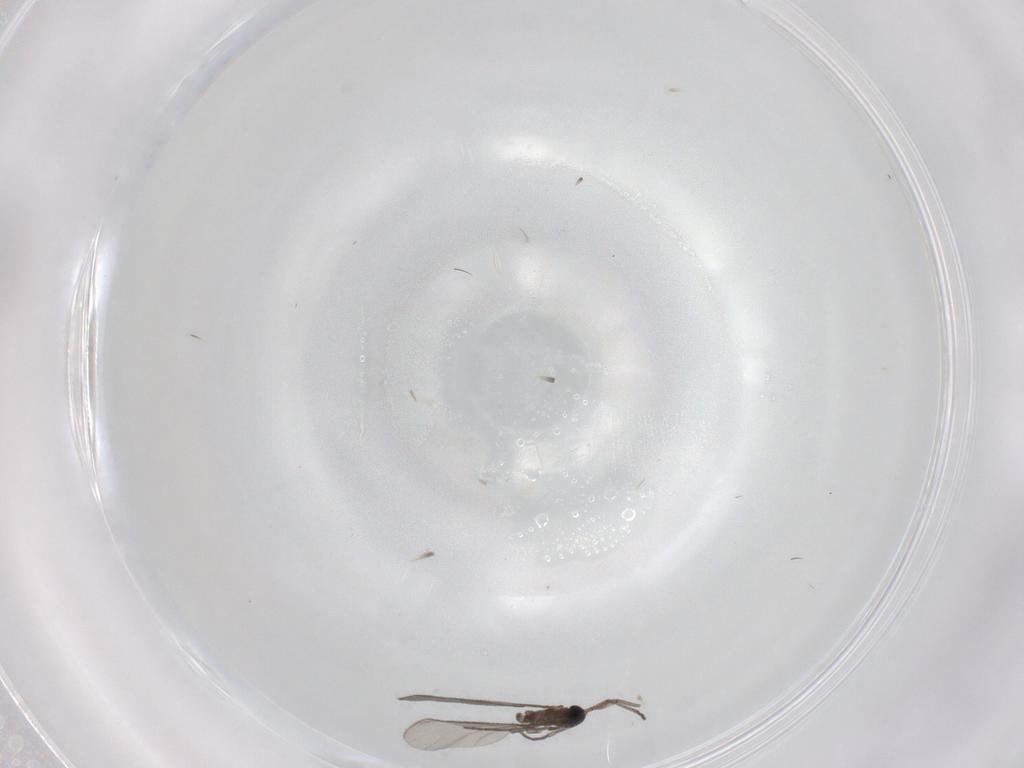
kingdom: Animalia
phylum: Arthropoda
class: Insecta
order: Diptera
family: Sciaridae
